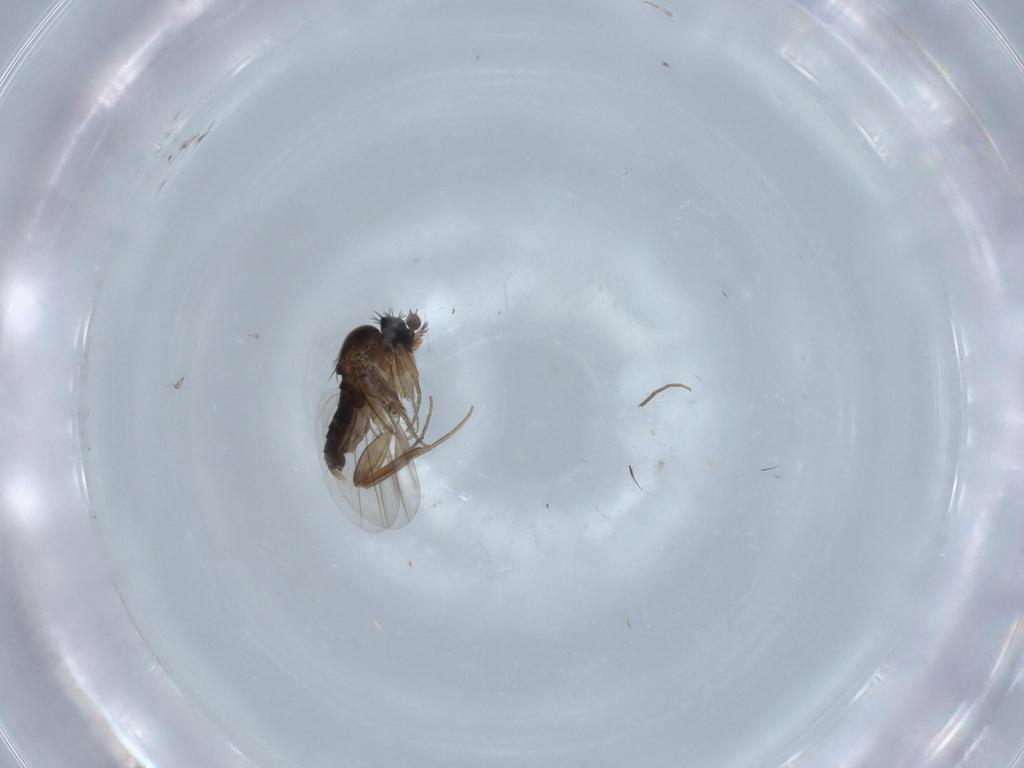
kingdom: Animalia
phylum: Arthropoda
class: Insecta
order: Diptera
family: Chironomidae
